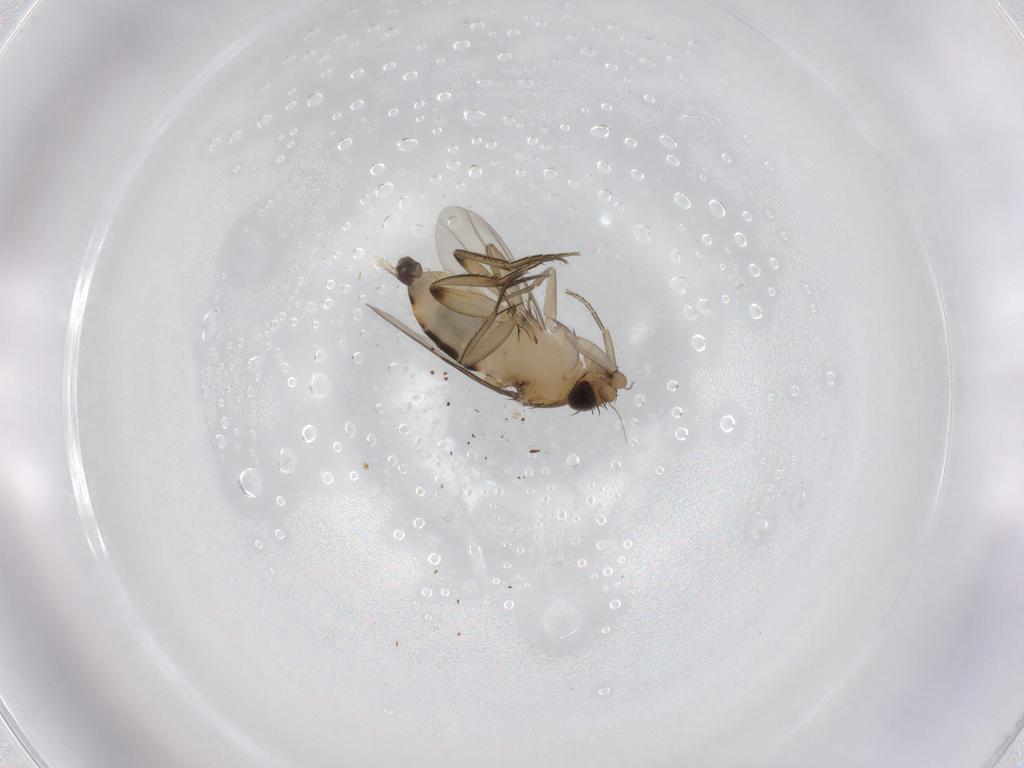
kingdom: Animalia
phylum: Arthropoda
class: Insecta
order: Diptera
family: Phoridae
